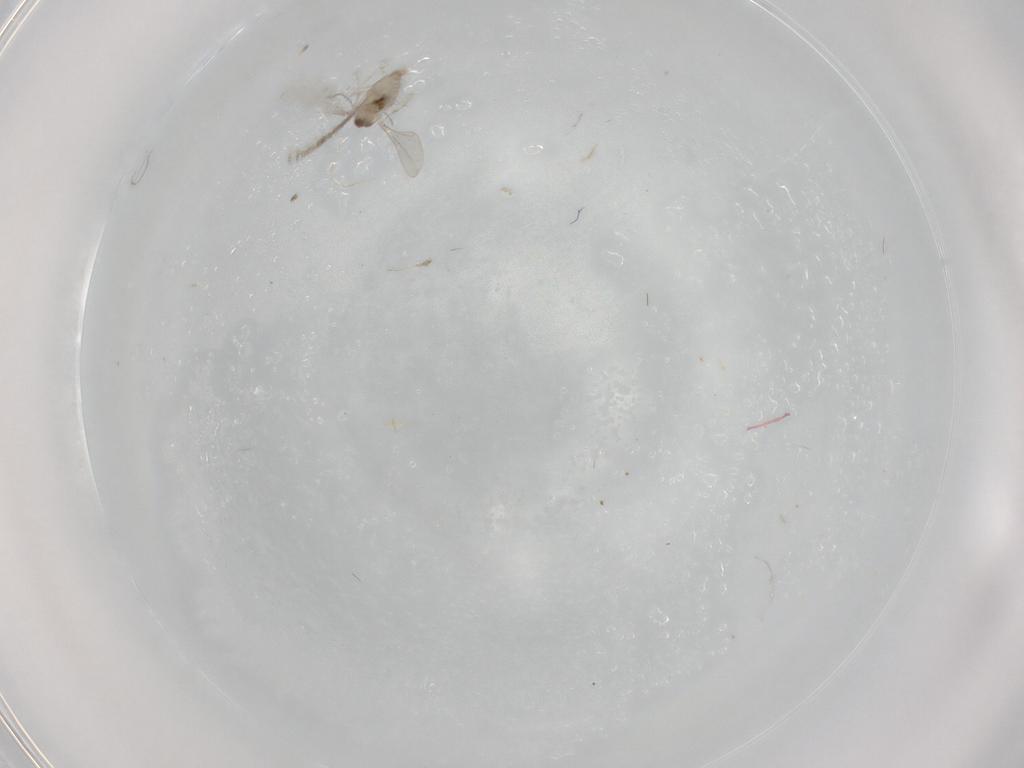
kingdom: Animalia
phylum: Arthropoda
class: Insecta
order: Diptera
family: Cecidomyiidae
